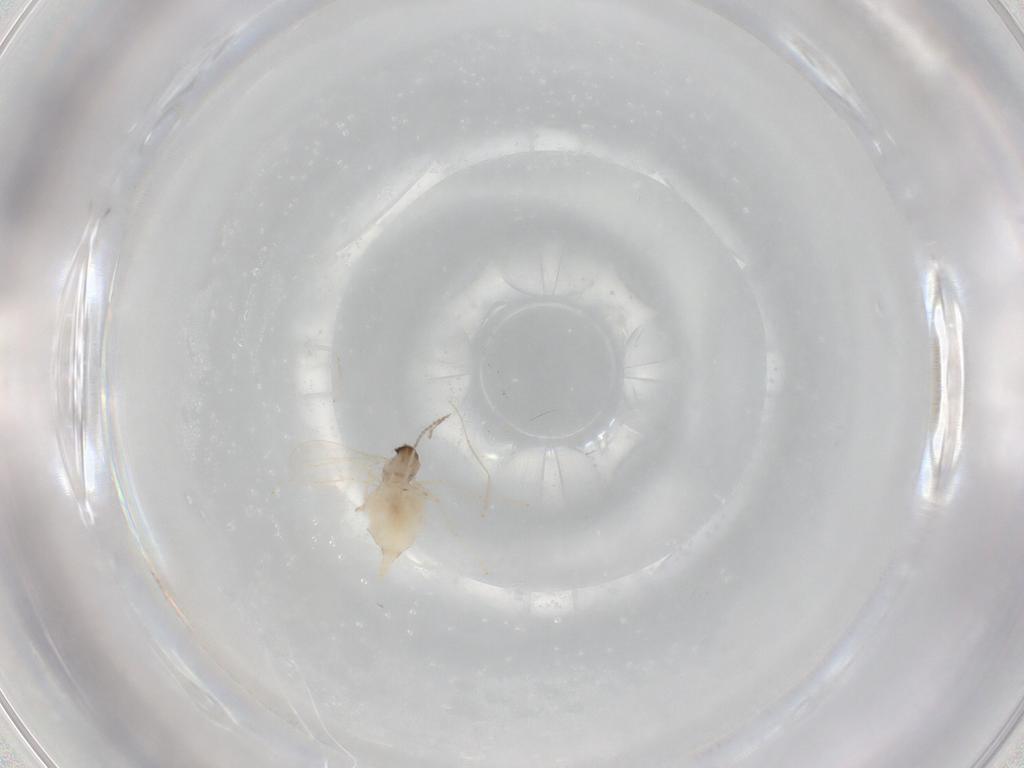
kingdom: Animalia
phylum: Arthropoda
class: Insecta
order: Diptera
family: Cecidomyiidae
